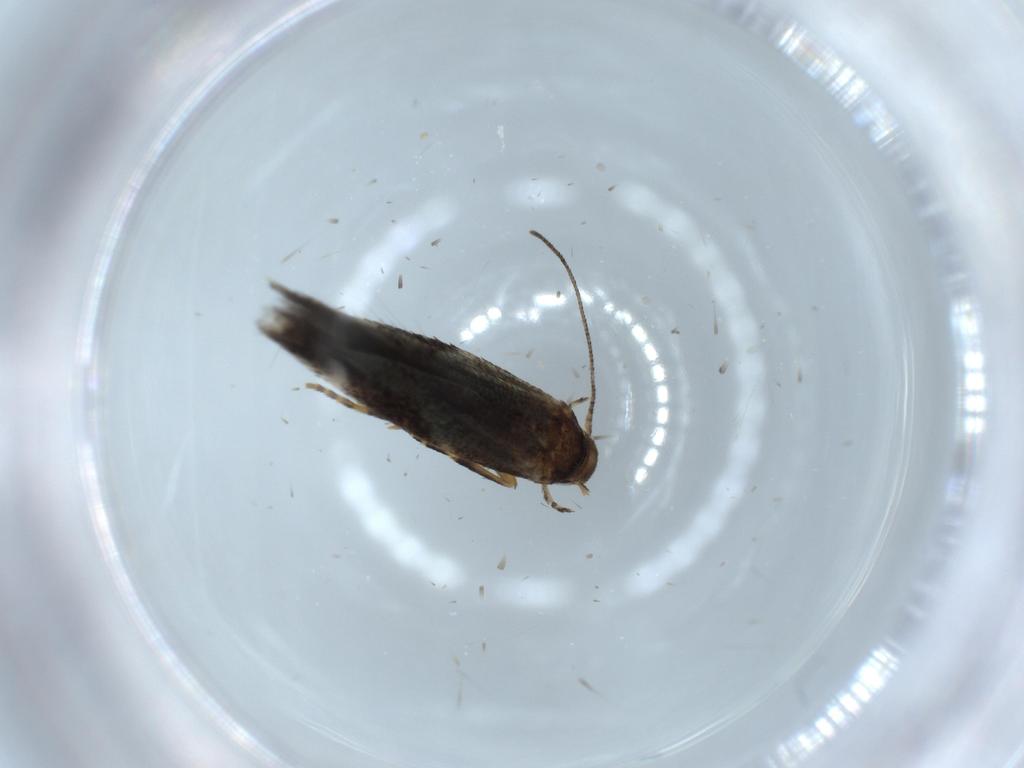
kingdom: Animalia
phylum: Arthropoda
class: Insecta
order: Lepidoptera
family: Elachistidae
